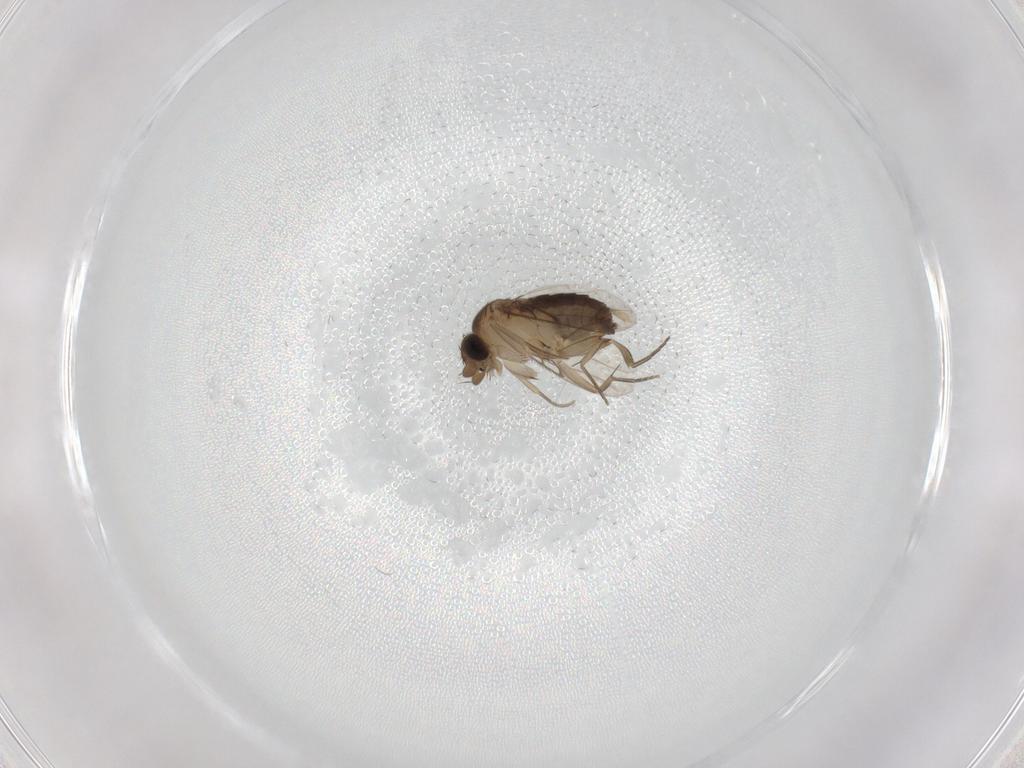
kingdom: Animalia
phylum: Arthropoda
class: Insecta
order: Diptera
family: Phoridae
